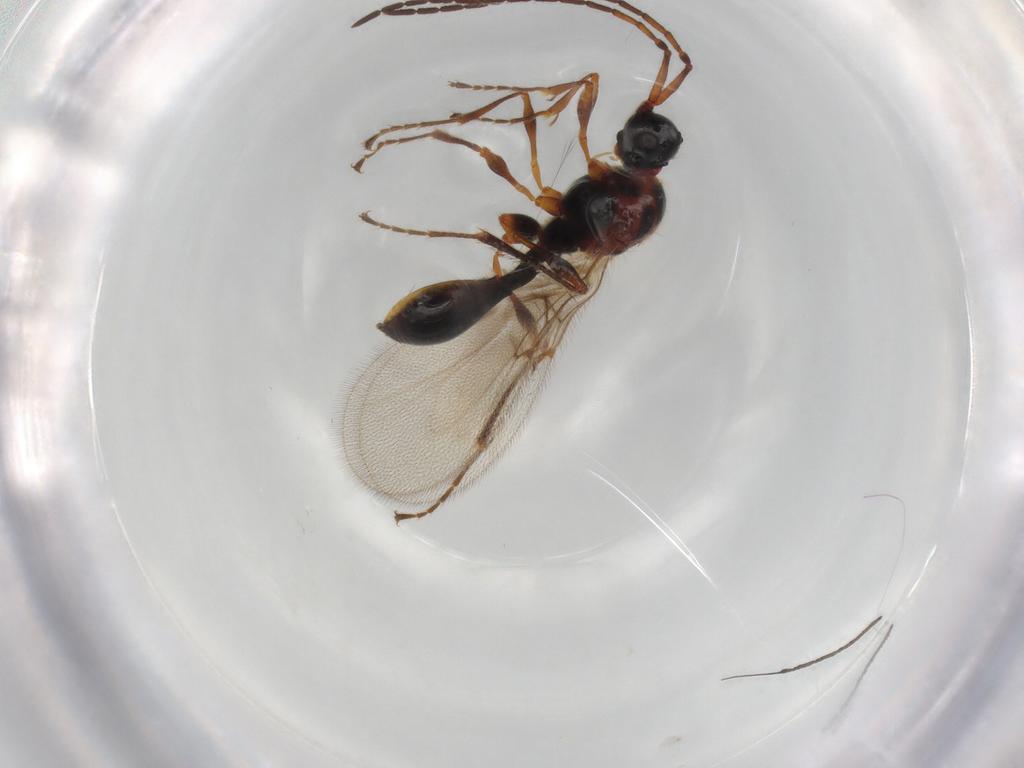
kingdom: Animalia
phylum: Arthropoda
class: Insecta
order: Hymenoptera
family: Diapriidae
